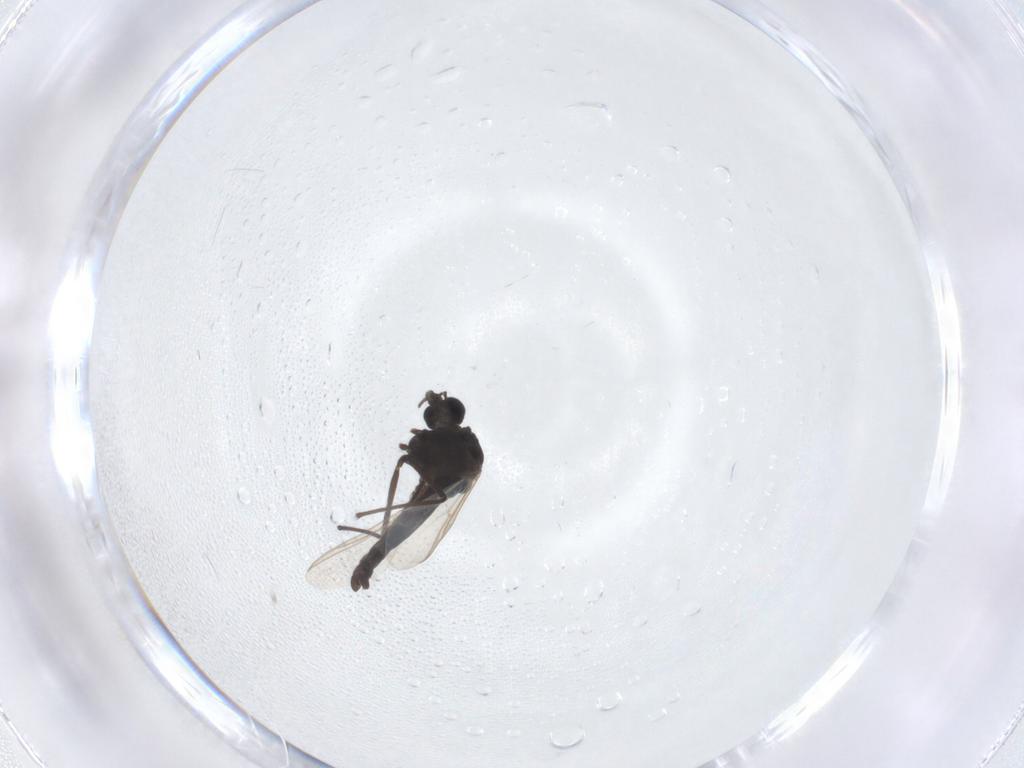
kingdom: Animalia
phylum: Arthropoda
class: Insecta
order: Diptera
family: Chironomidae
